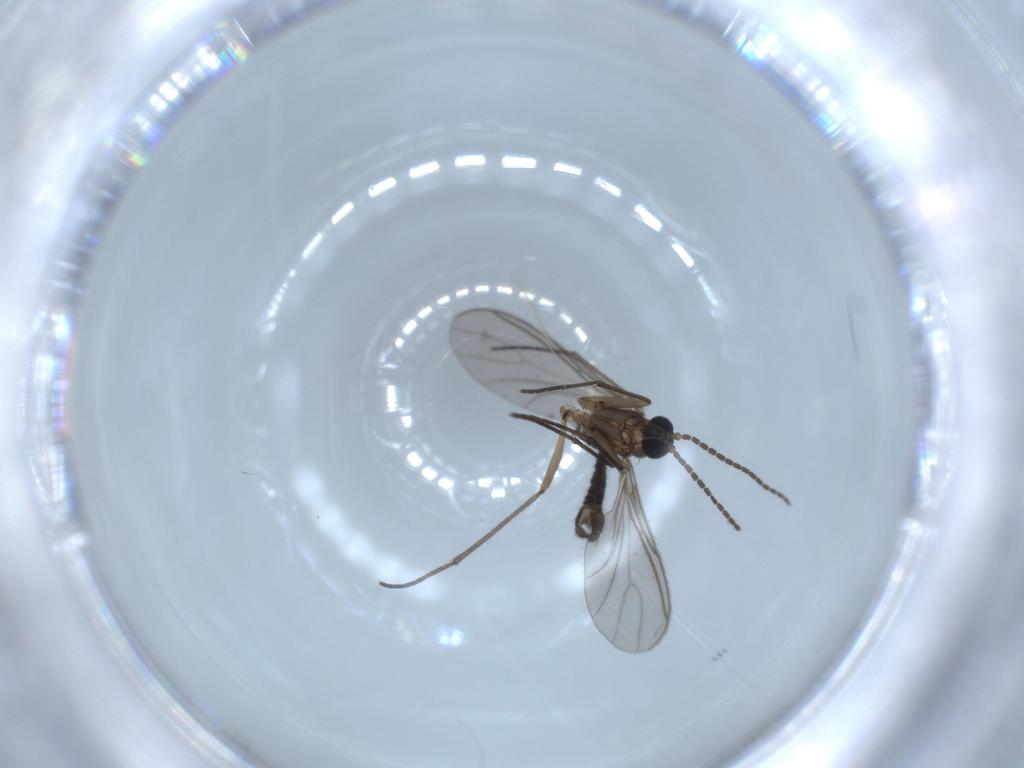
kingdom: Animalia
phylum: Arthropoda
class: Insecta
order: Diptera
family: Sciaridae
